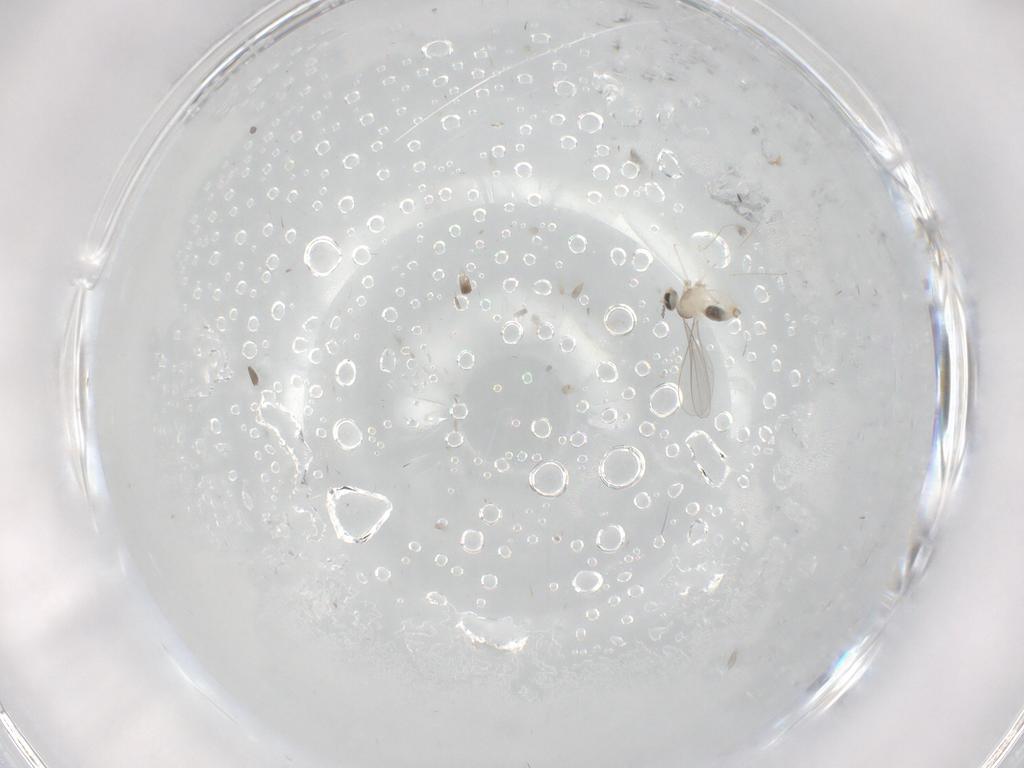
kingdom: Animalia
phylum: Arthropoda
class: Insecta
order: Diptera
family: Cecidomyiidae
